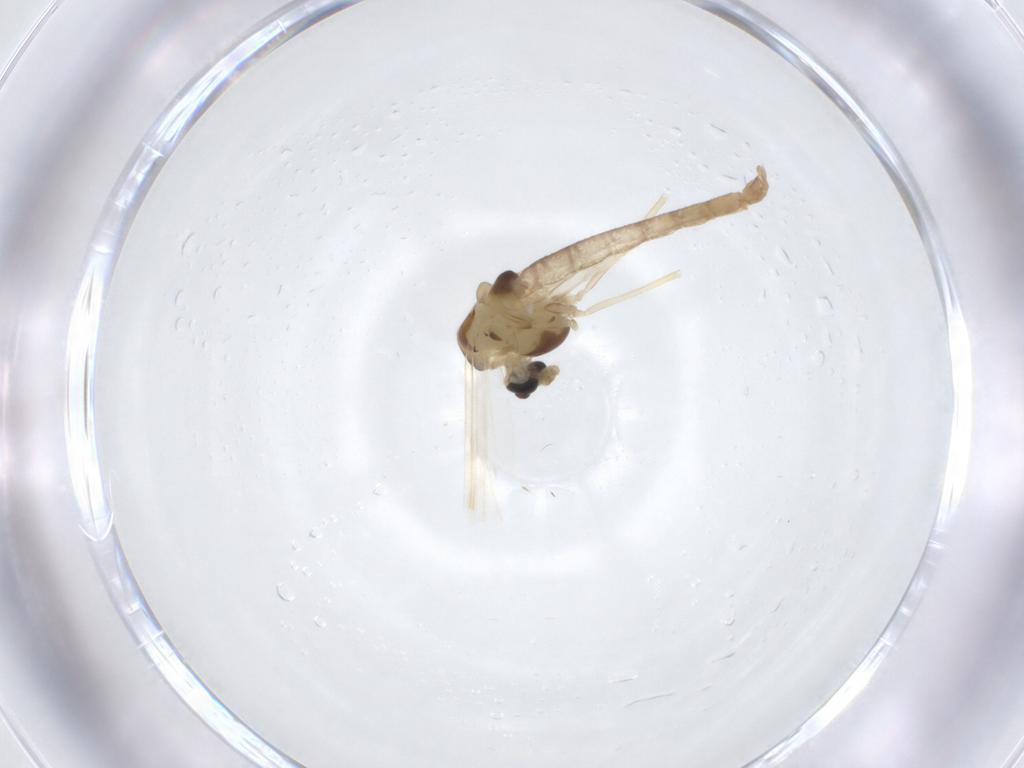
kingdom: Animalia
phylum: Arthropoda
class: Insecta
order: Diptera
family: Chironomidae
